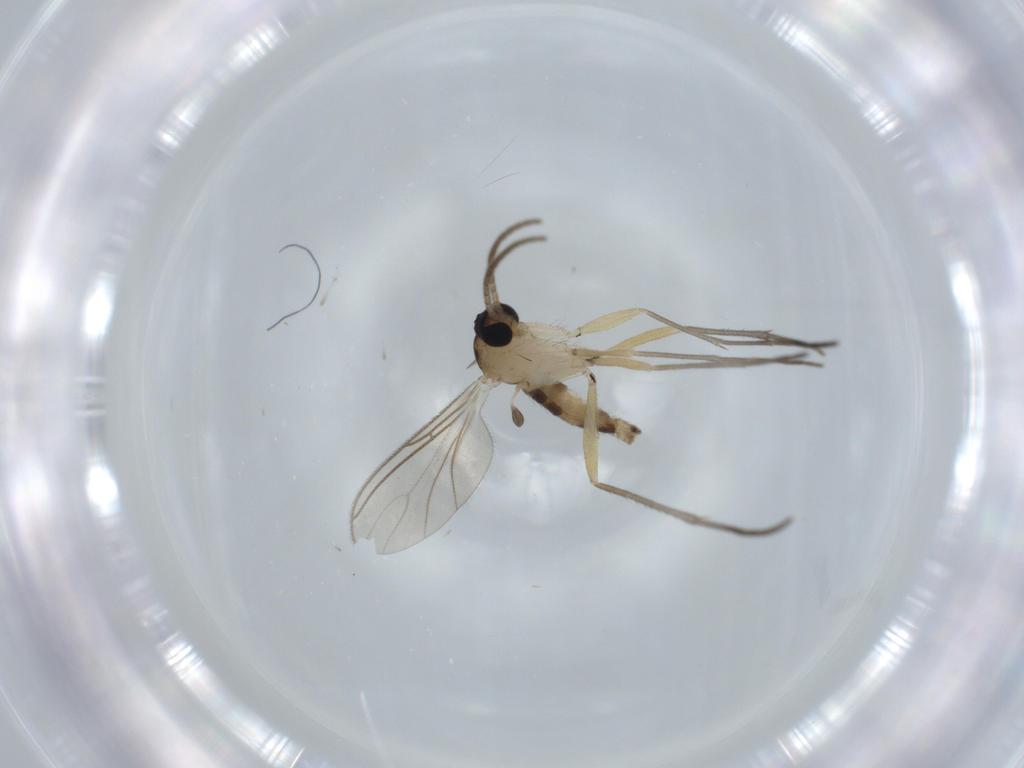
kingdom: Animalia
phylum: Arthropoda
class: Insecta
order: Diptera
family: Sciaridae
